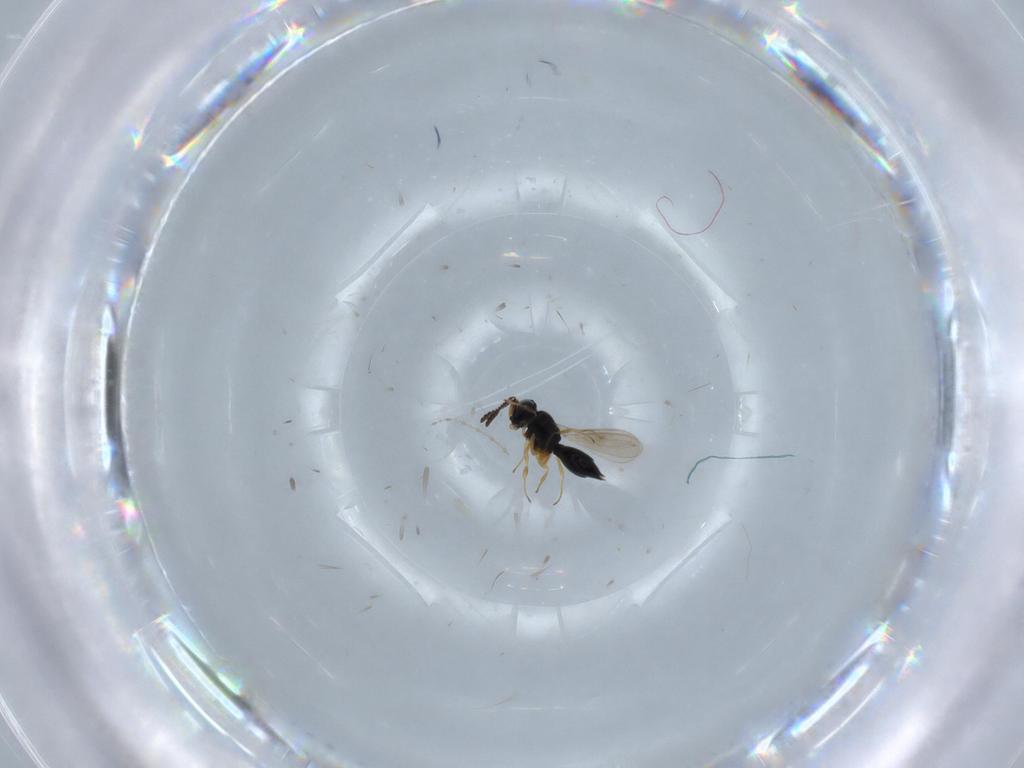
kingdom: Animalia
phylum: Arthropoda
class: Insecta
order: Hymenoptera
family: Scelionidae
